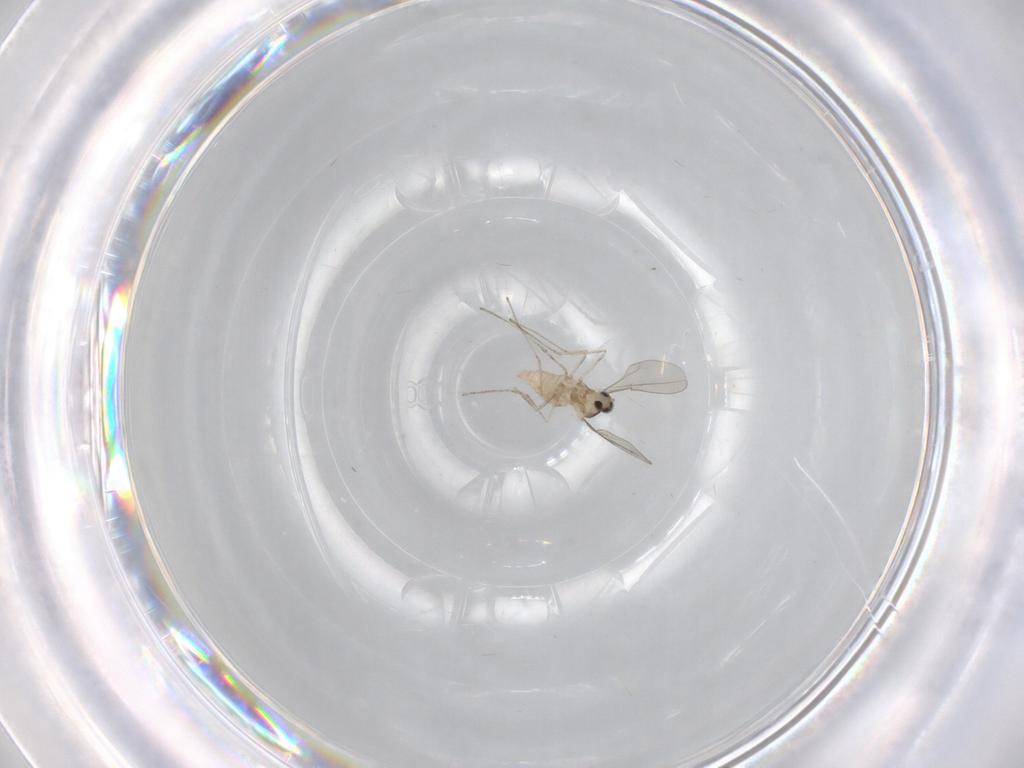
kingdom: Animalia
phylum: Arthropoda
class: Insecta
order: Diptera
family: Cecidomyiidae
